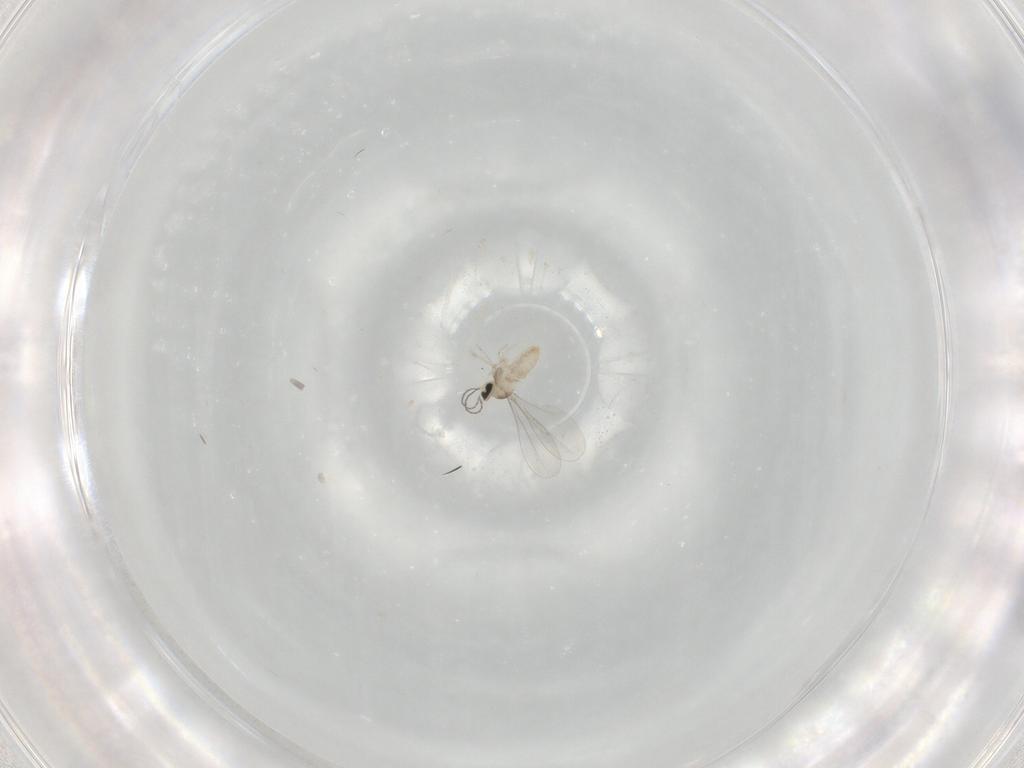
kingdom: Animalia
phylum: Arthropoda
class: Insecta
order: Diptera
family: Cecidomyiidae
